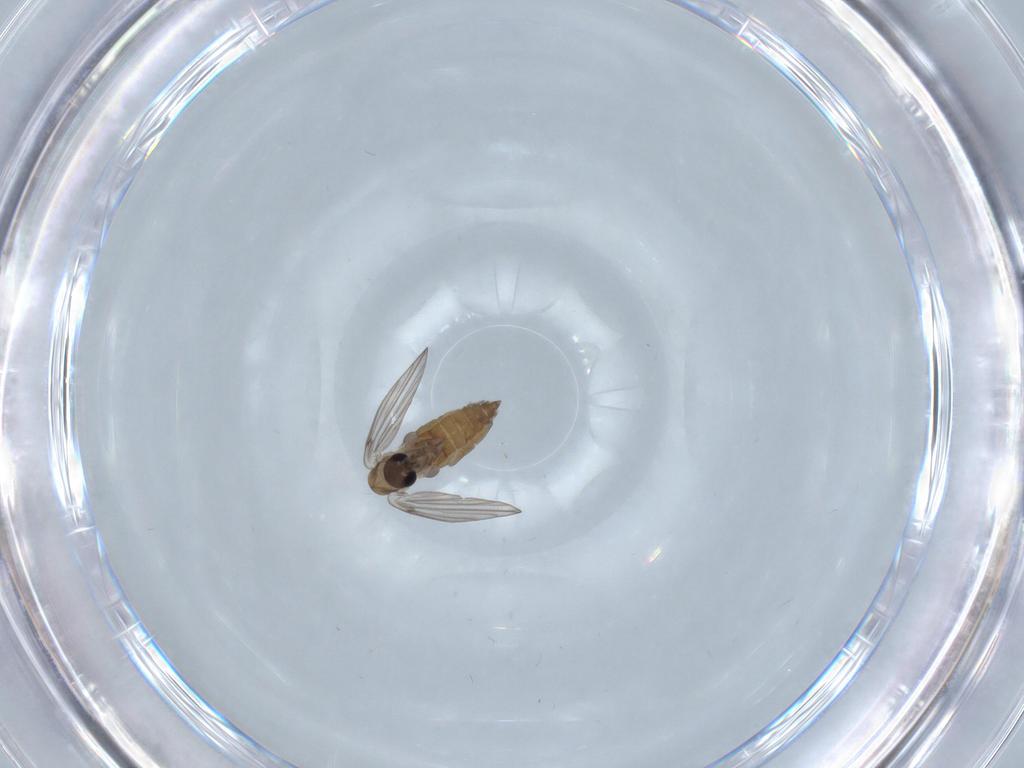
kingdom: Animalia
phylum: Arthropoda
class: Insecta
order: Diptera
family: Psychodidae
